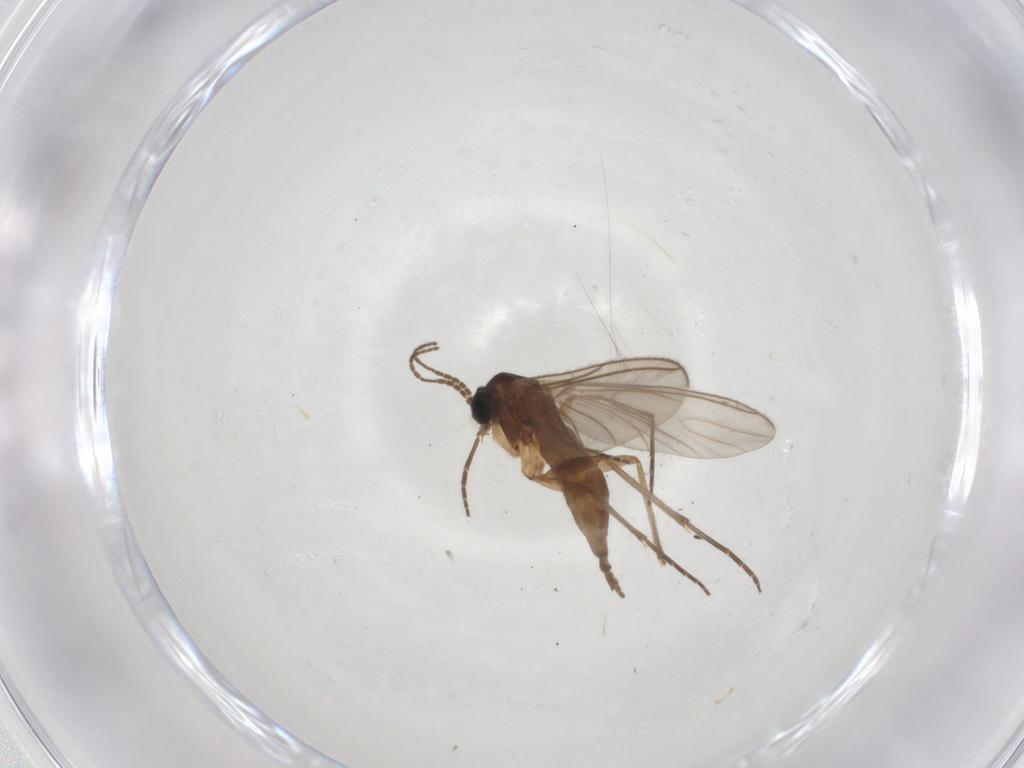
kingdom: Animalia
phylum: Arthropoda
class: Insecta
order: Diptera
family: Sciaridae
